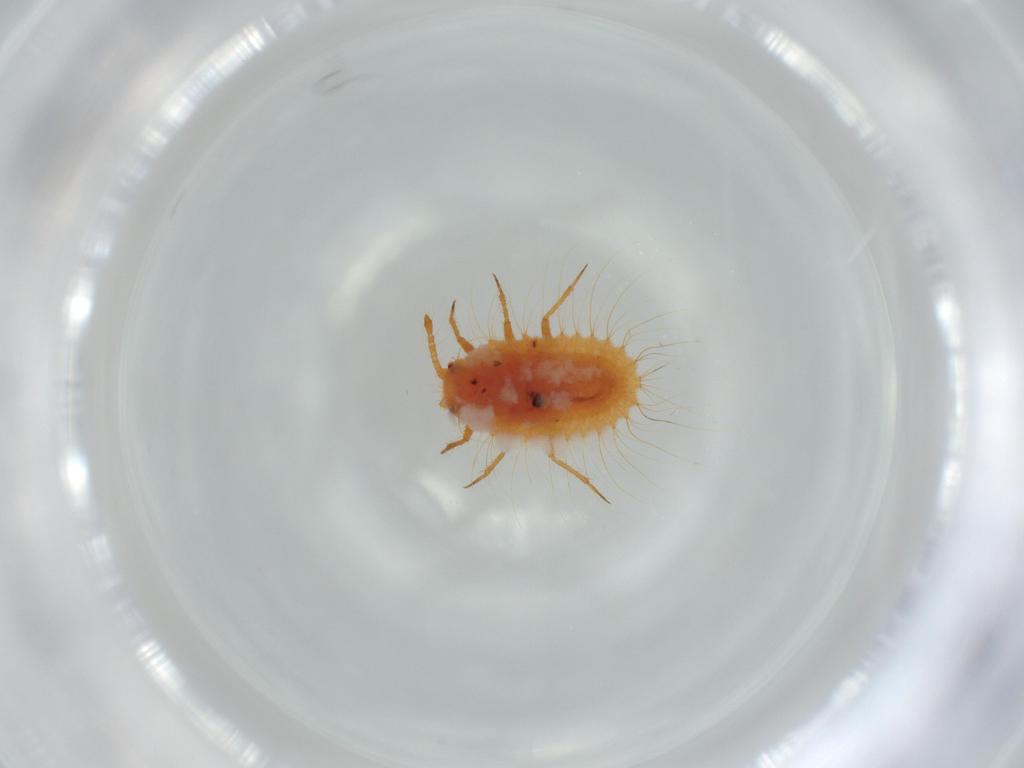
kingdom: Animalia
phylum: Arthropoda
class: Insecta
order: Hemiptera
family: Coccoidea_incertae_sedis
